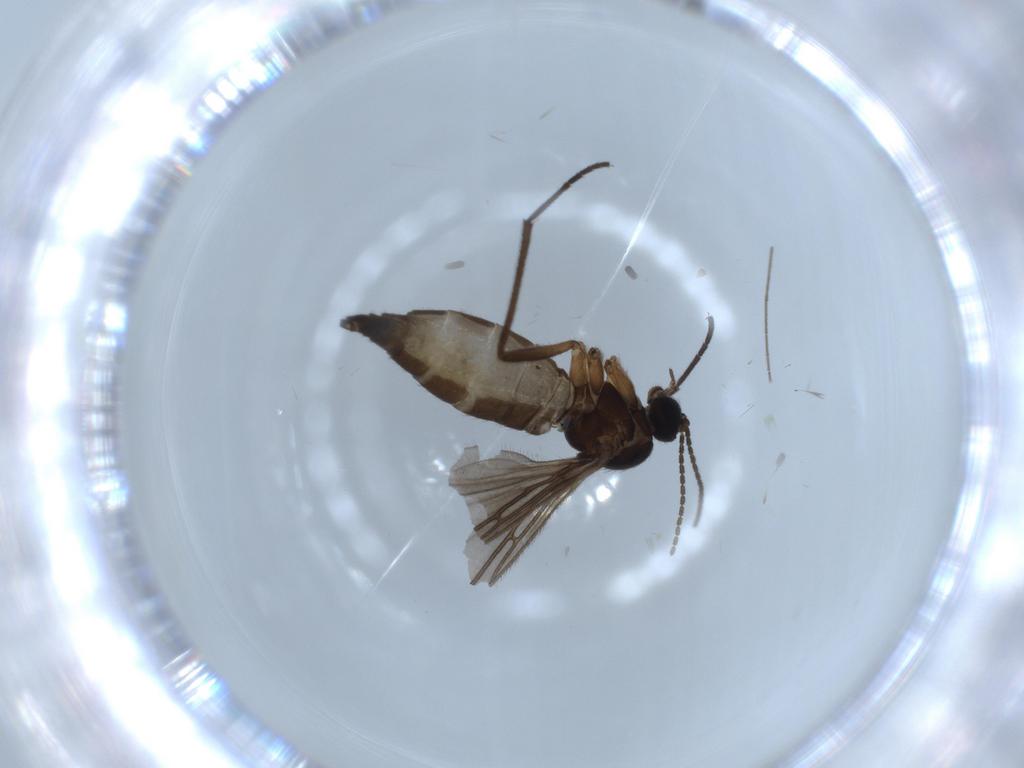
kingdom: Animalia
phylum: Arthropoda
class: Insecta
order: Diptera
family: Sciaridae
